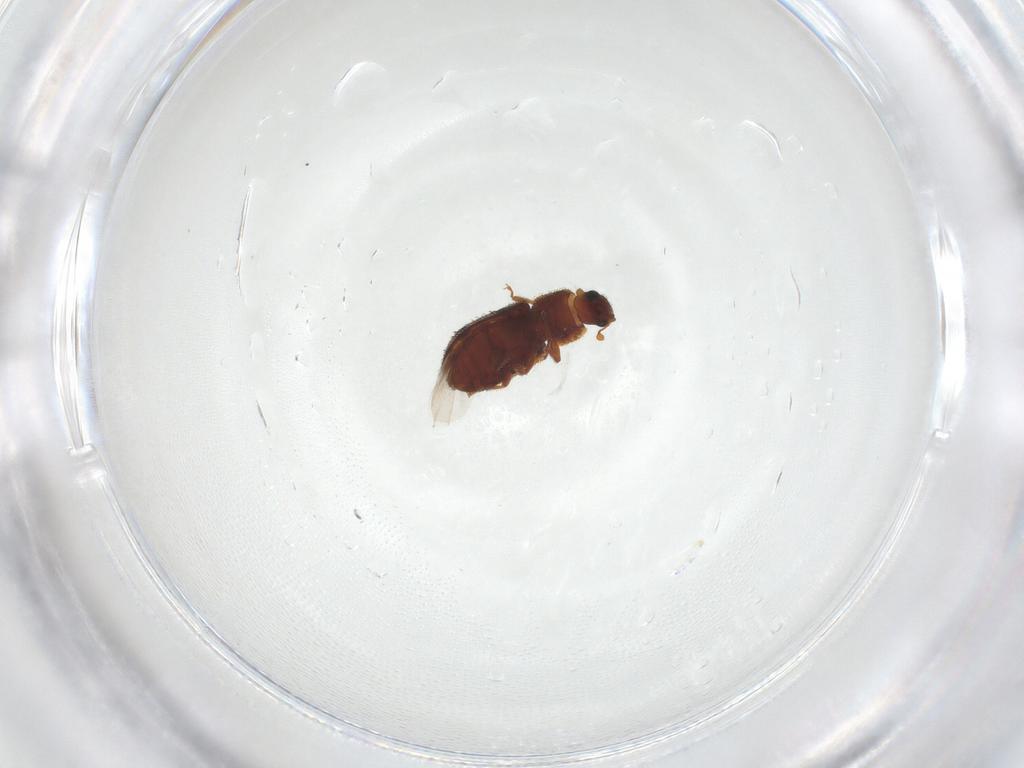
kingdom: Animalia
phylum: Arthropoda
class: Insecta
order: Coleoptera
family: Zopheridae
